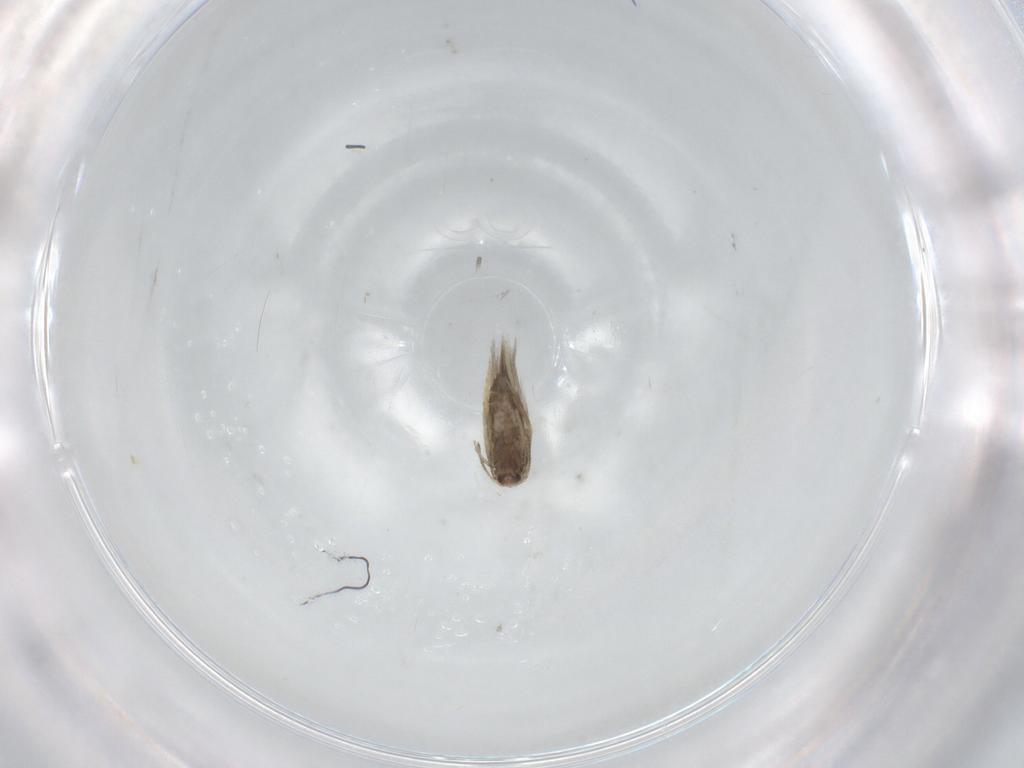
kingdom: Animalia
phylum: Arthropoda
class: Insecta
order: Lepidoptera
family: Nepticulidae
